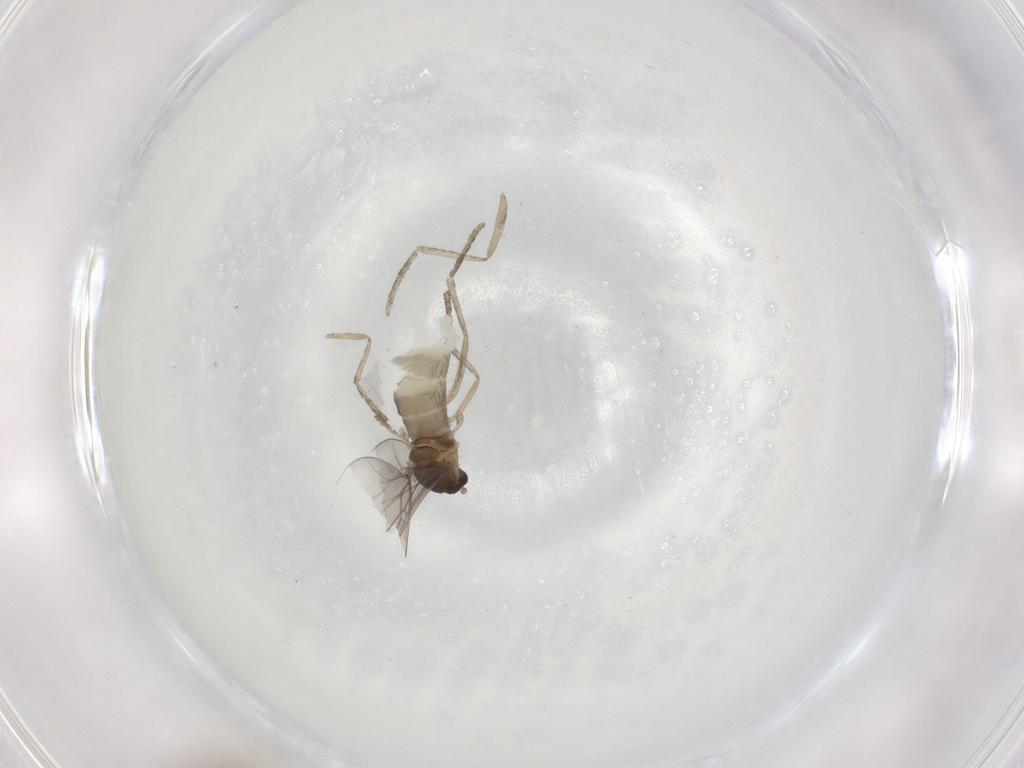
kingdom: Animalia
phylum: Arthropoda
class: Insecta
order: Diptera
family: Cecidomyiidae
